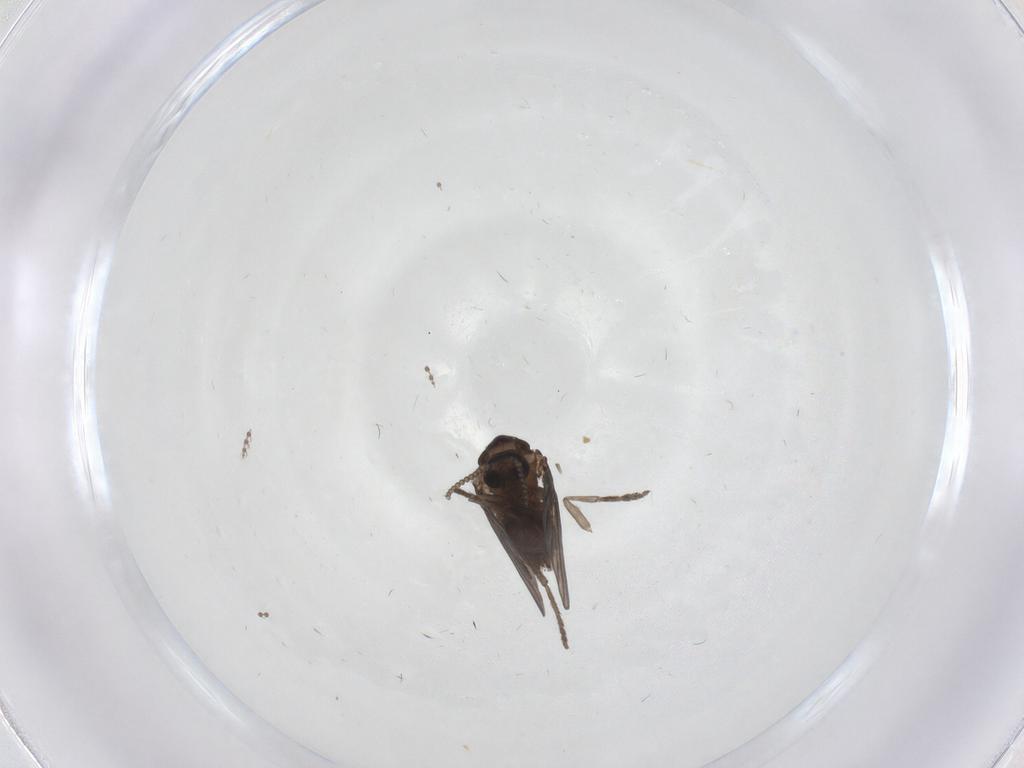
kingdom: Animalia
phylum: Arthropoda
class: Insecta
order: Diptera
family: Psychodidae
